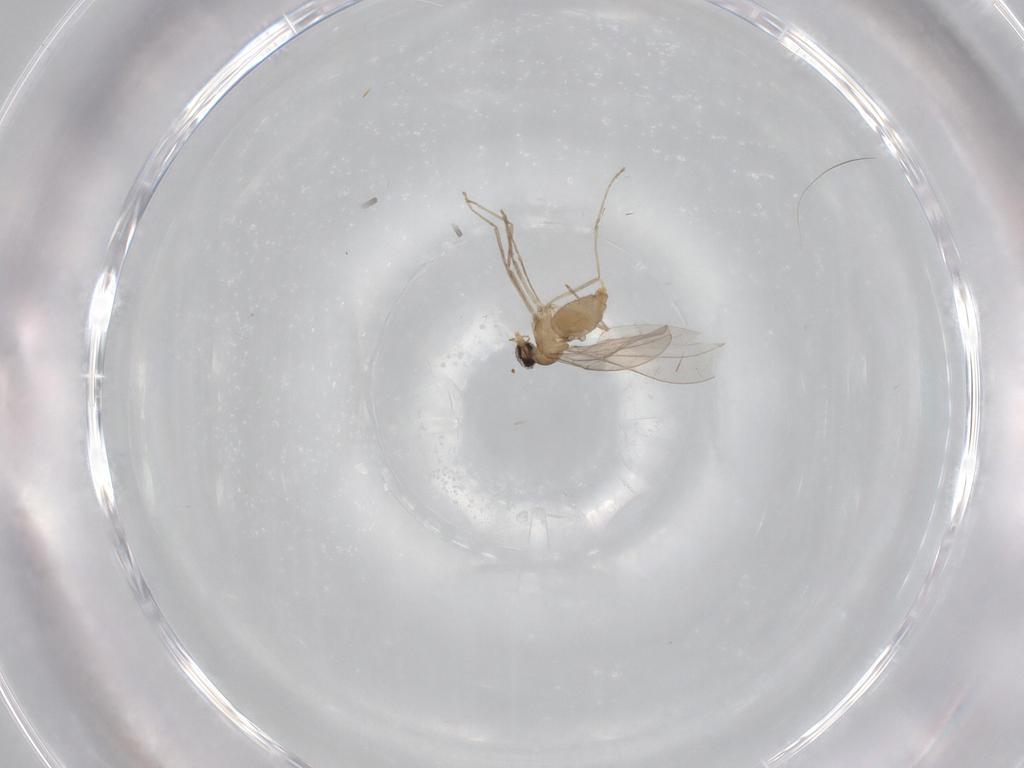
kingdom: Animalia
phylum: Arthropoda
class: Insecta
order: Diptera
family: Cecidomyiidae
